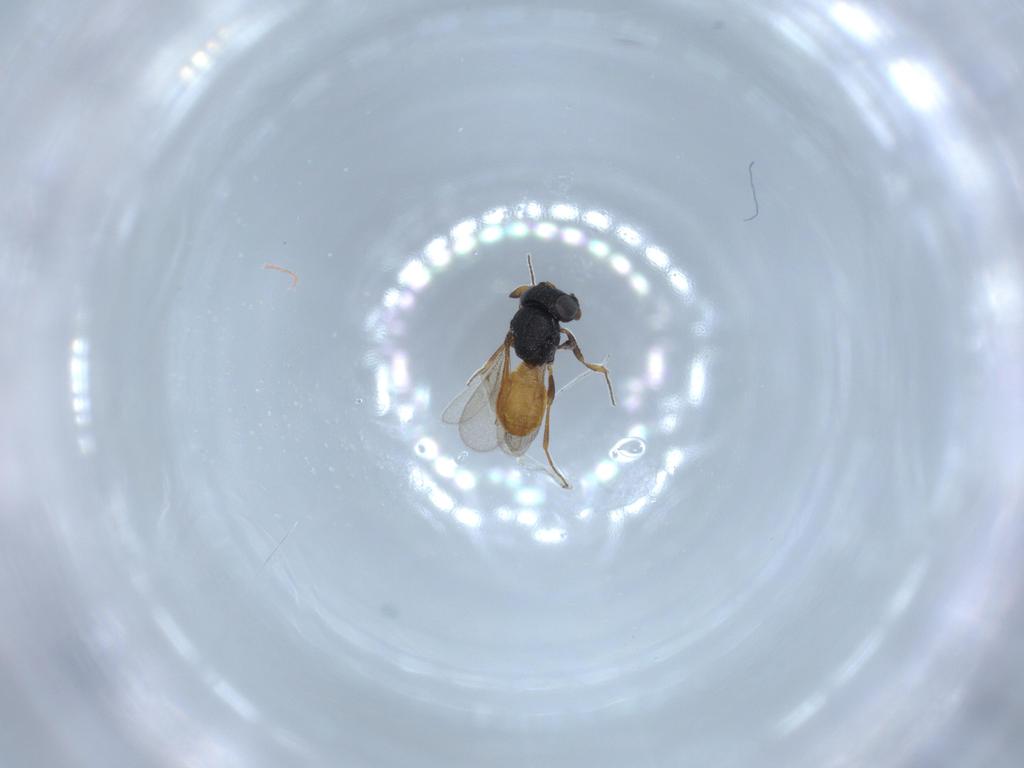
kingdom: Animalia
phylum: Arthropoda
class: Insecta
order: Hymenoptera
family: Scelionidae
